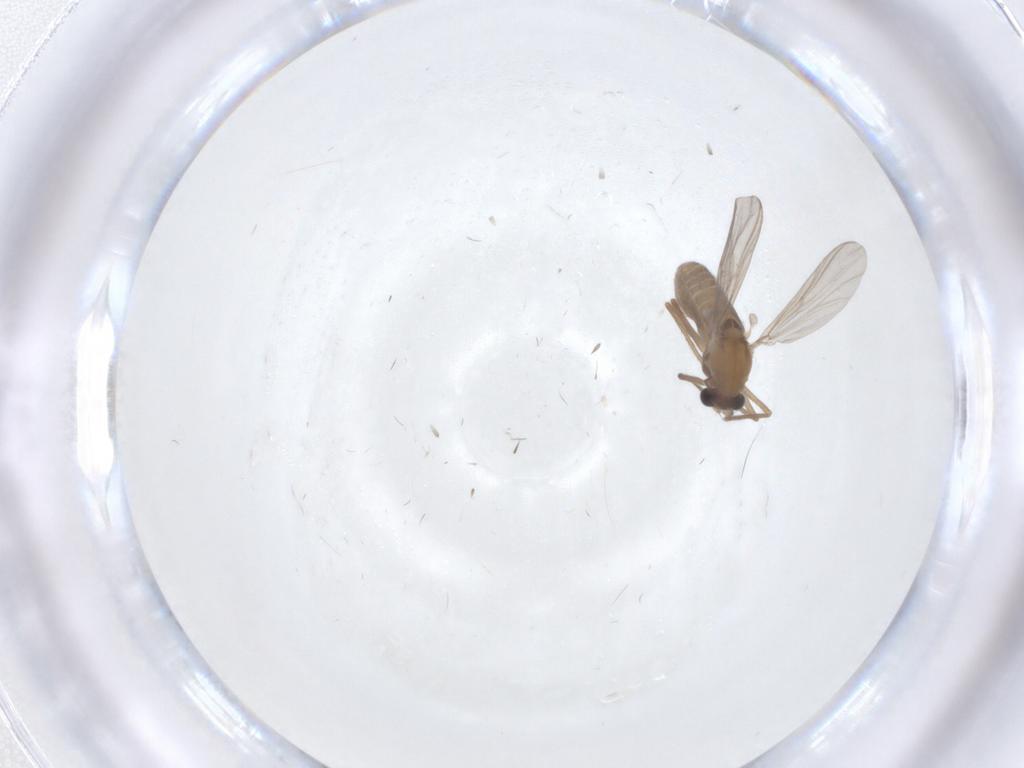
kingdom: Animalia
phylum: Arthropoda
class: Insecta
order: Diptera
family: Chironomidae
